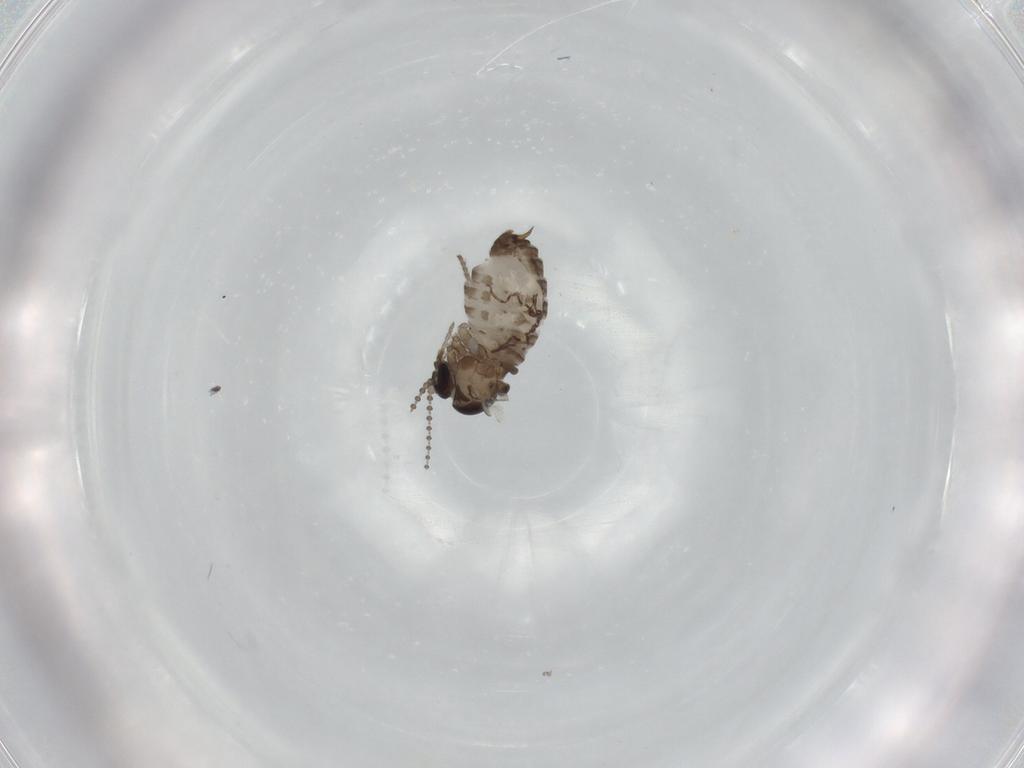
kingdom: Animalia
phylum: Arthropoda
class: Insecta
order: Diptera
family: Psychodidae
